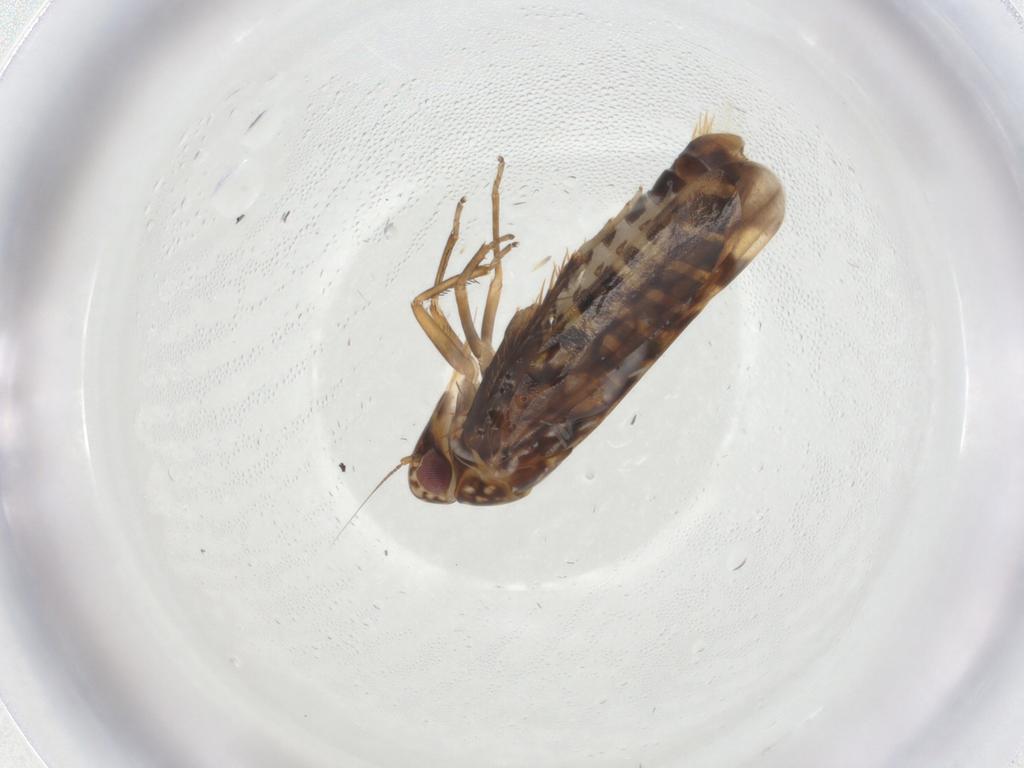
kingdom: Animalia
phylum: Arthropoda
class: Insecta
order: Hemiptera
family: Cicadellidae
